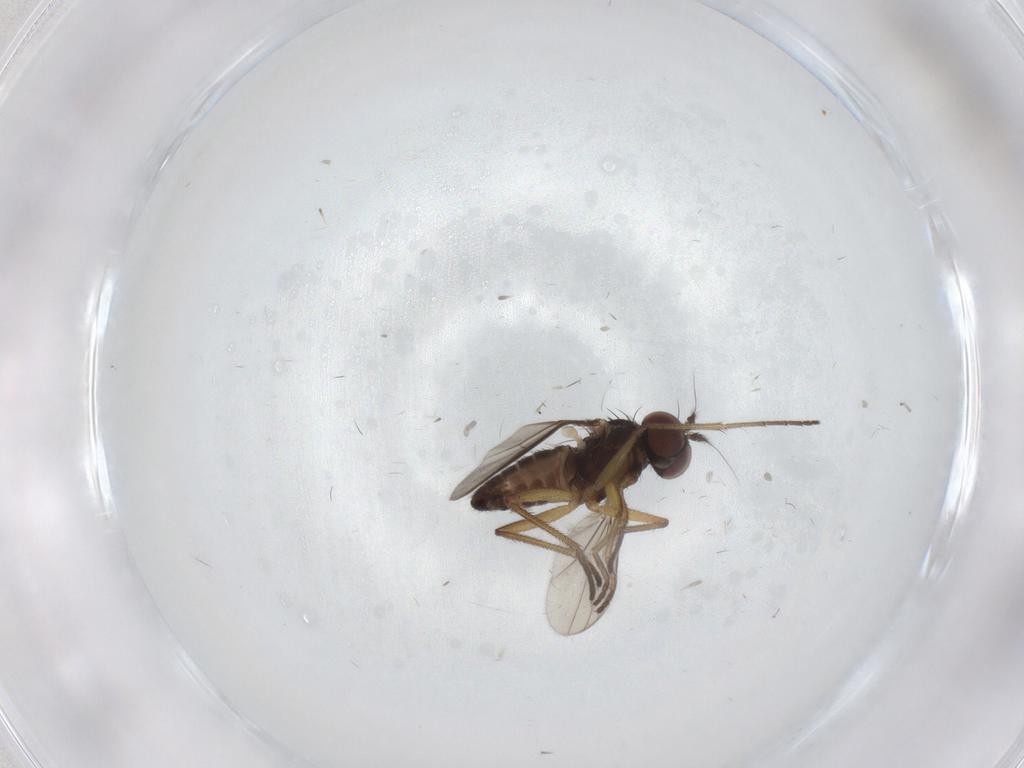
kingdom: Animalia
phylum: Arthropoda
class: Insecta
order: Diptera
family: Dolichopodidae
